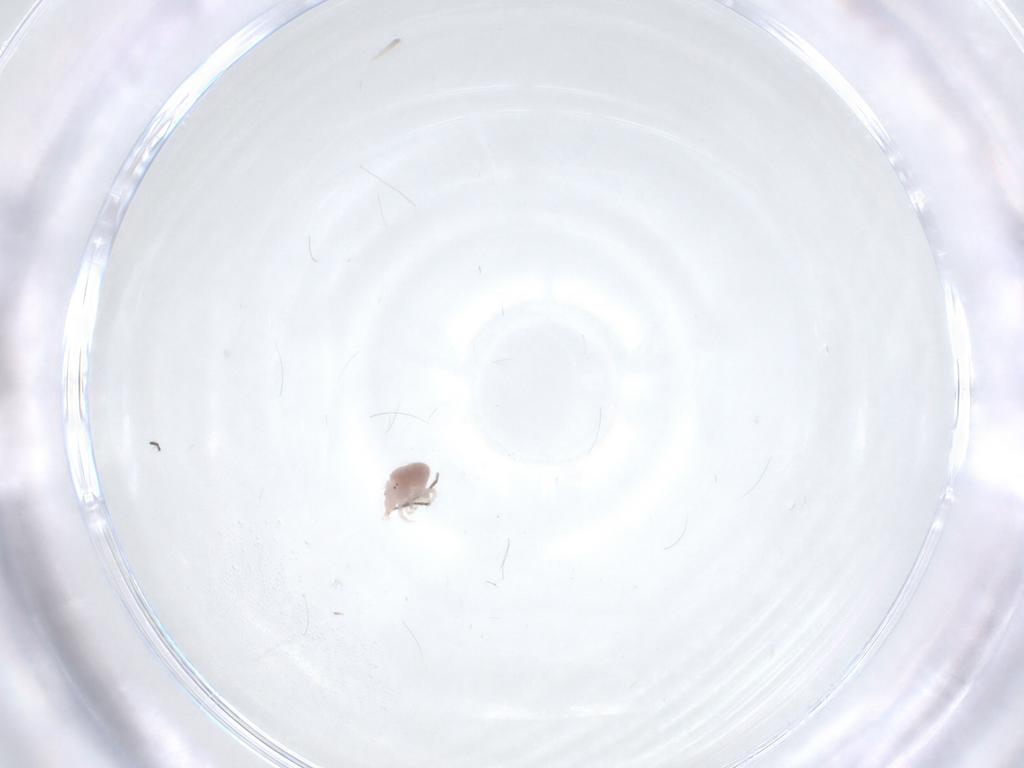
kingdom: Animalia
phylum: Arthropoda
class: Arachnida
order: Trombidiformes
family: Bdellidae
